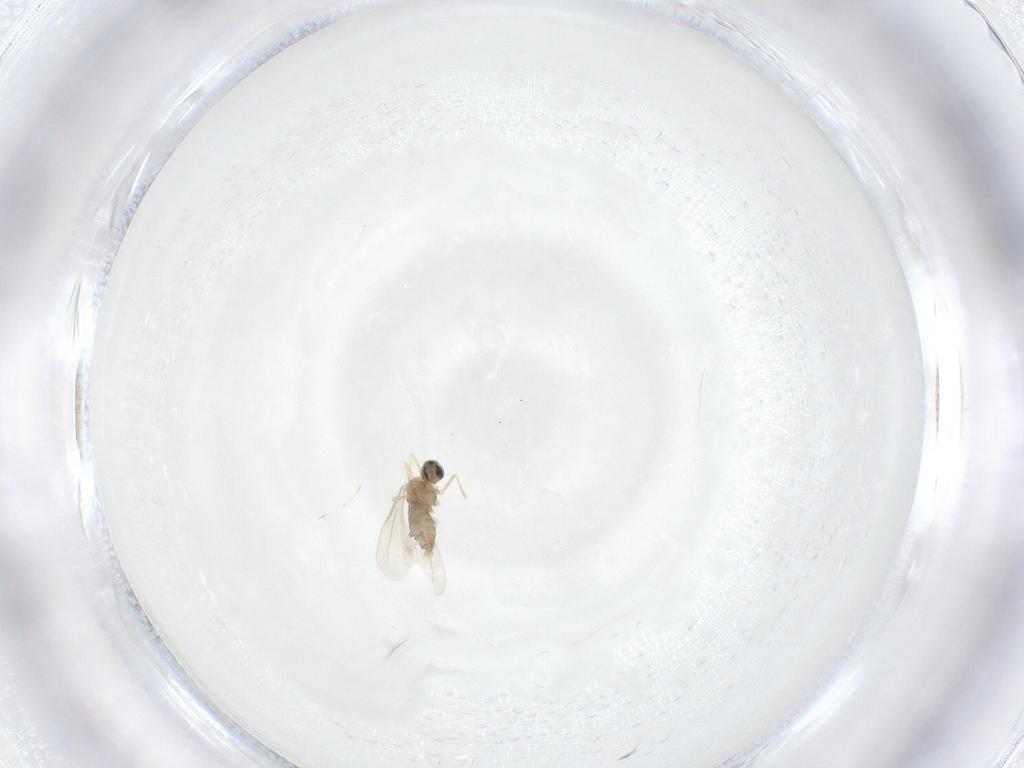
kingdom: Animalia
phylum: Arthropoda
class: Insecta
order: Diptera
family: Cecidomyiidae
